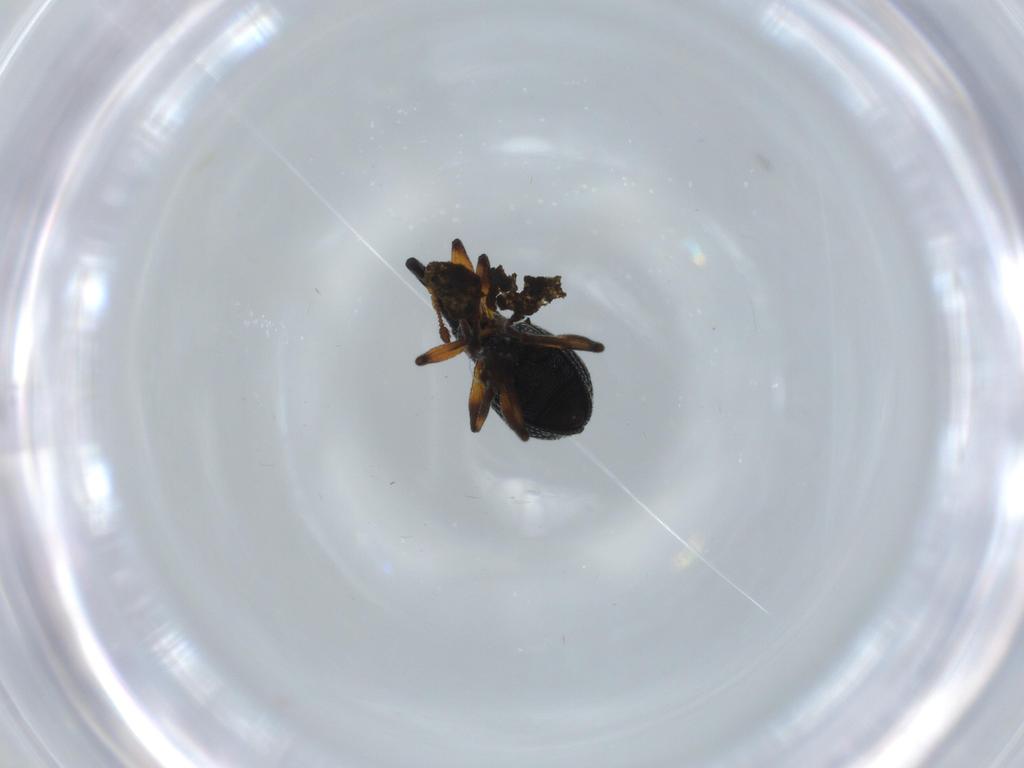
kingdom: Animalia
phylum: Arthropoda
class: Insecta
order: Coleoptera
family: Brentidae
